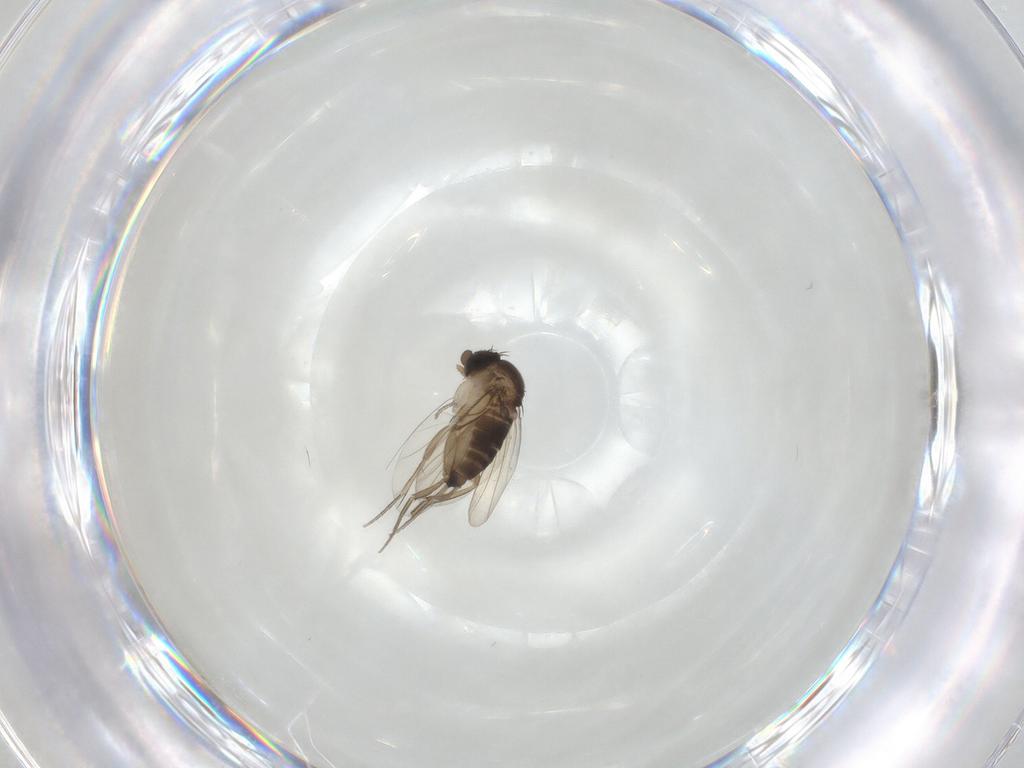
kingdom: Animalia
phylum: Arthropoda
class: Insecta
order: Diptera
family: Phoridae
